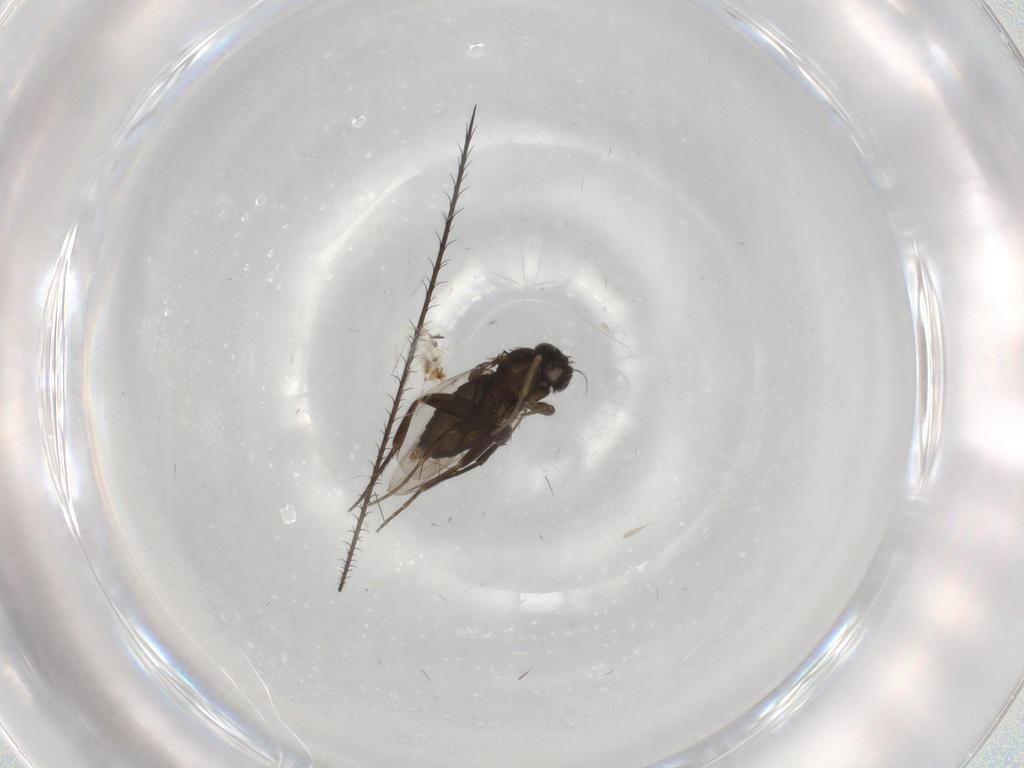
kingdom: Animalia
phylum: Arthropoda
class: Insecta
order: Diptera
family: Phoridae
